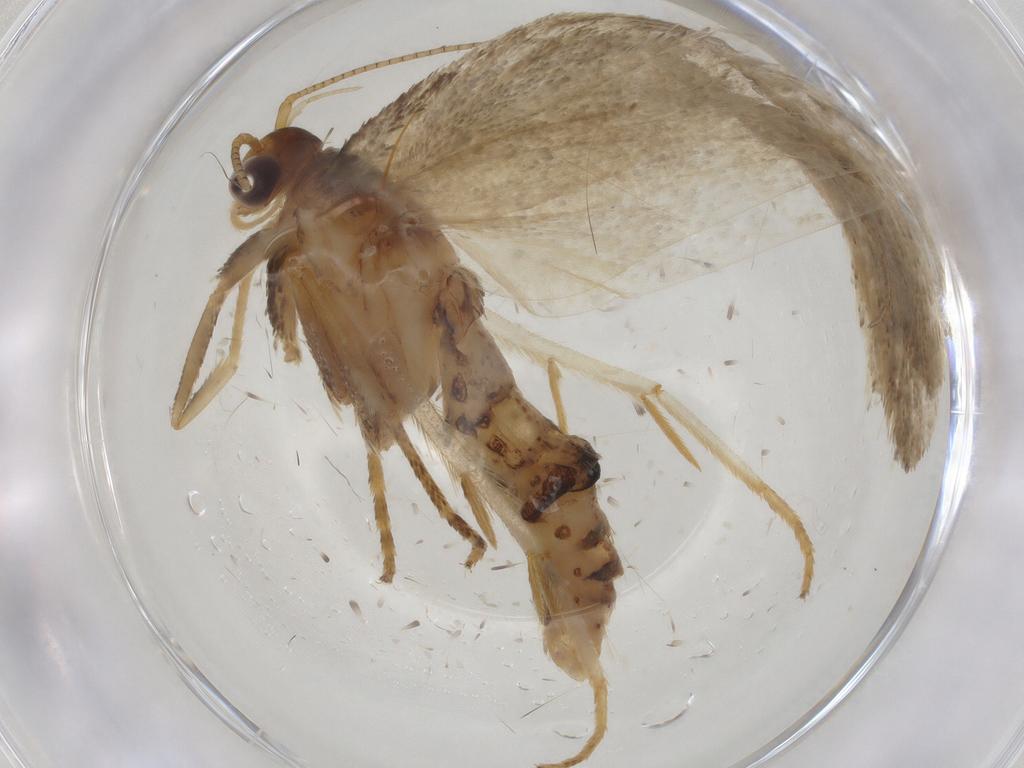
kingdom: Animalia
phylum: Arthropoda
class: Insecta
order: Lepidoptera
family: Depressariidae
